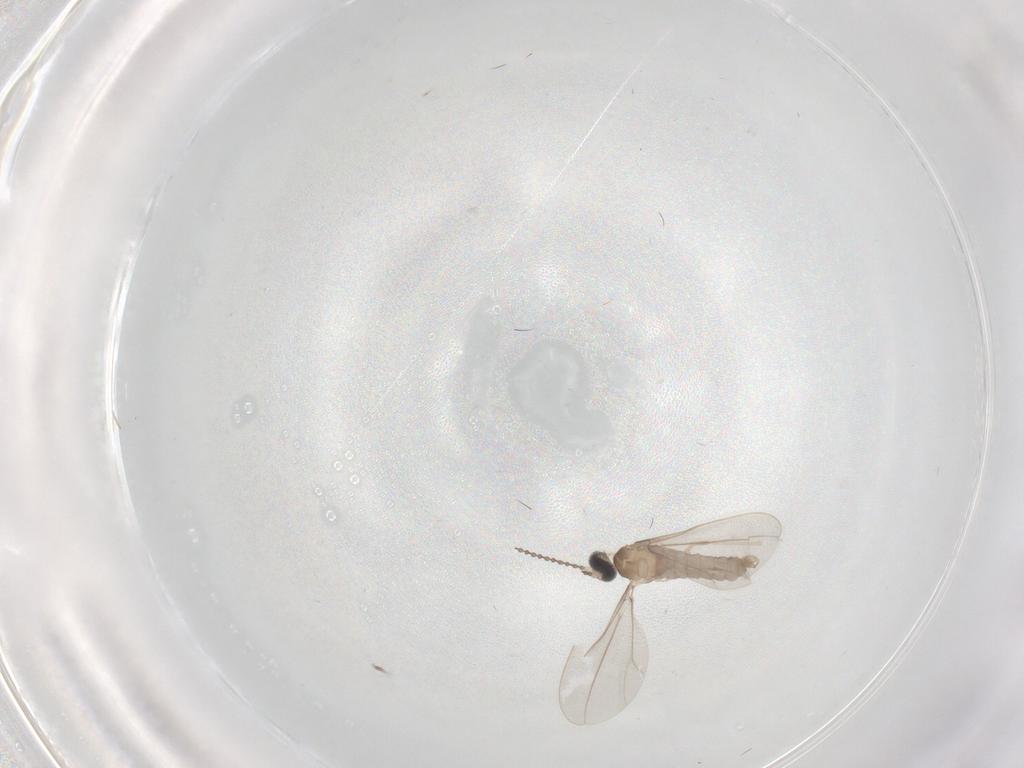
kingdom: Animalia
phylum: Arthropoda
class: Insecta
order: Diptera
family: Cecidomyiidae
